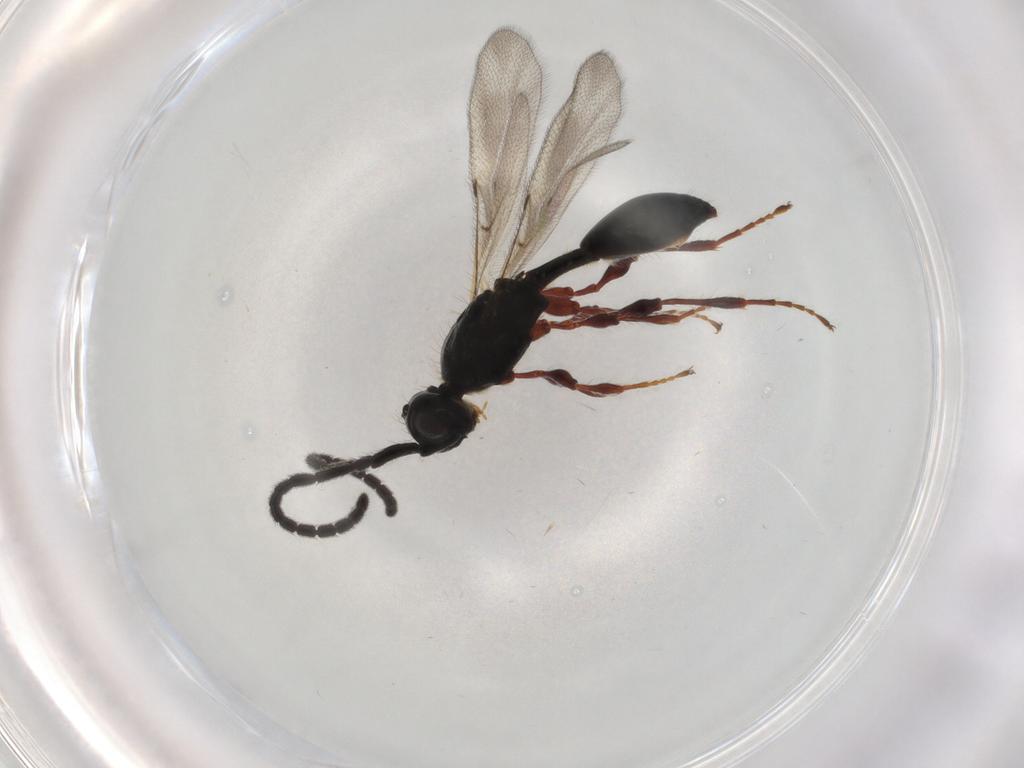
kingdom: Animalia
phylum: Arthropoda
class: Insecta
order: Hymenoptera
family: Diapriidae
